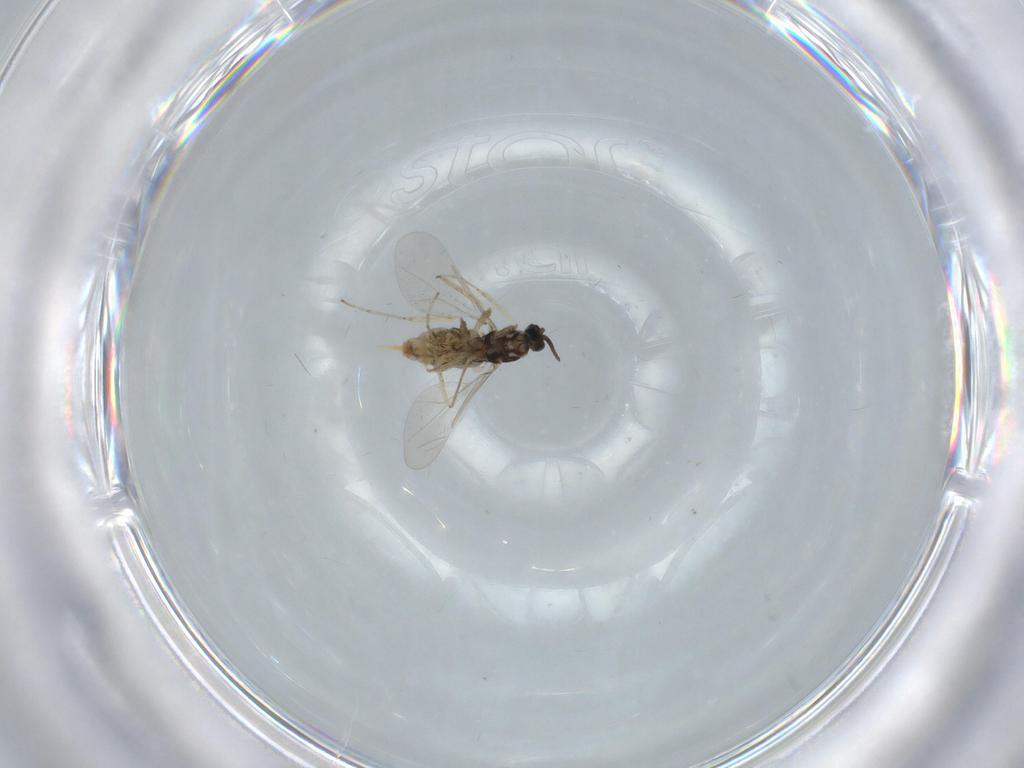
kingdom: Animalia
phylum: Arthropoda
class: Insecta
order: Diptera
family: Cecidomyiidae
